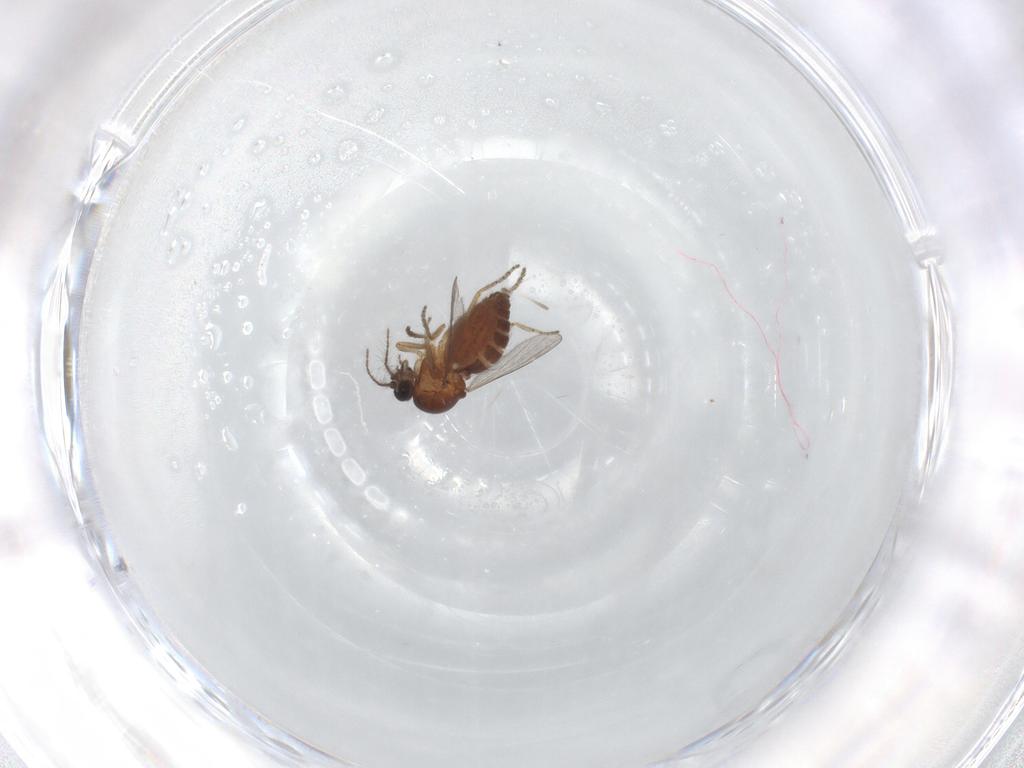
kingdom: Animalia
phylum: Arthropoda
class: Insecta
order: Diptera
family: Ceratopogonidae
